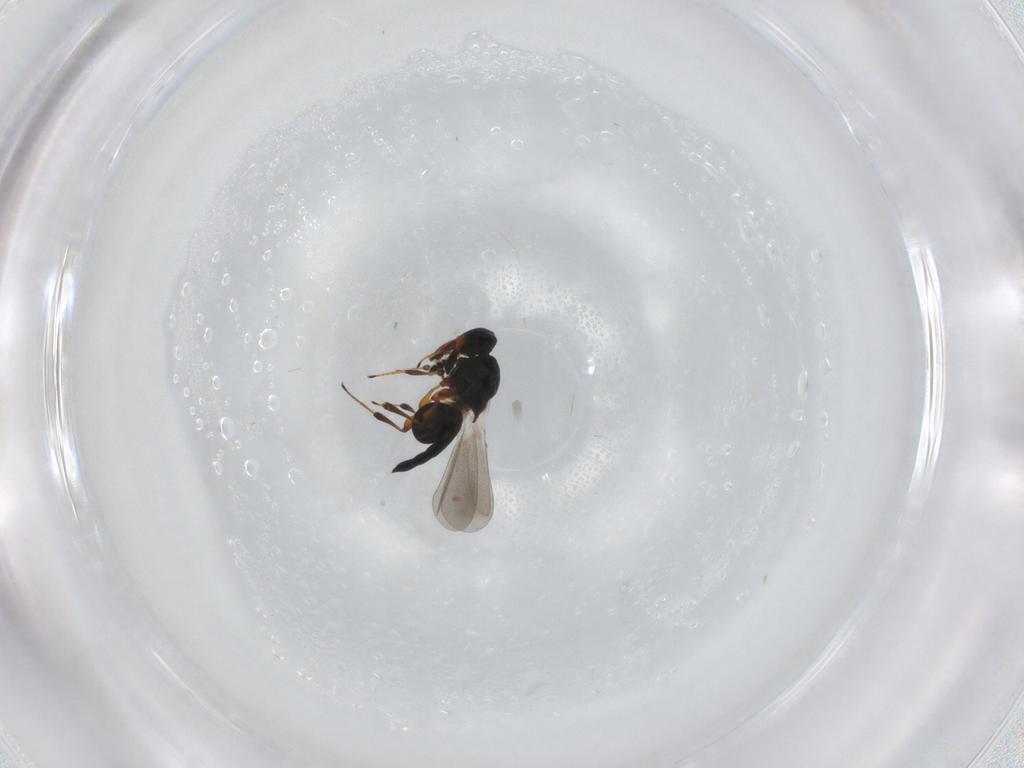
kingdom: Animalia
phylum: Arthropoda
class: Insecta
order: Hymenoptera
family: Platygastridae
